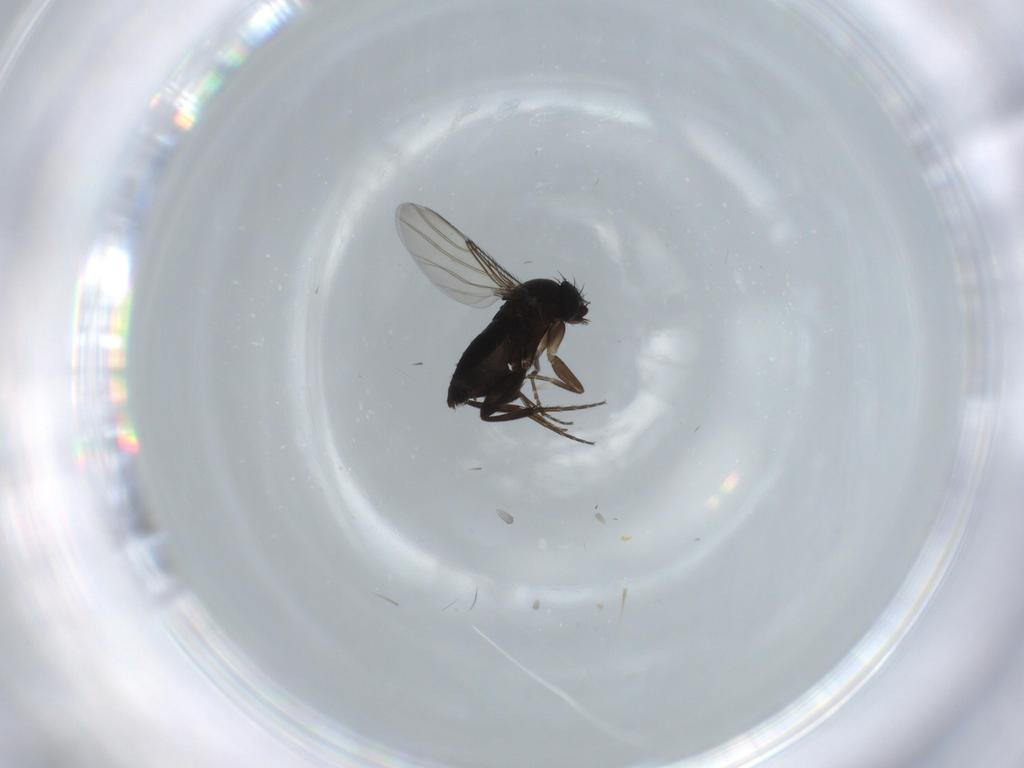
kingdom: Animalia
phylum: Arthropoda
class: Insecta
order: Diptera
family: Phoridae
